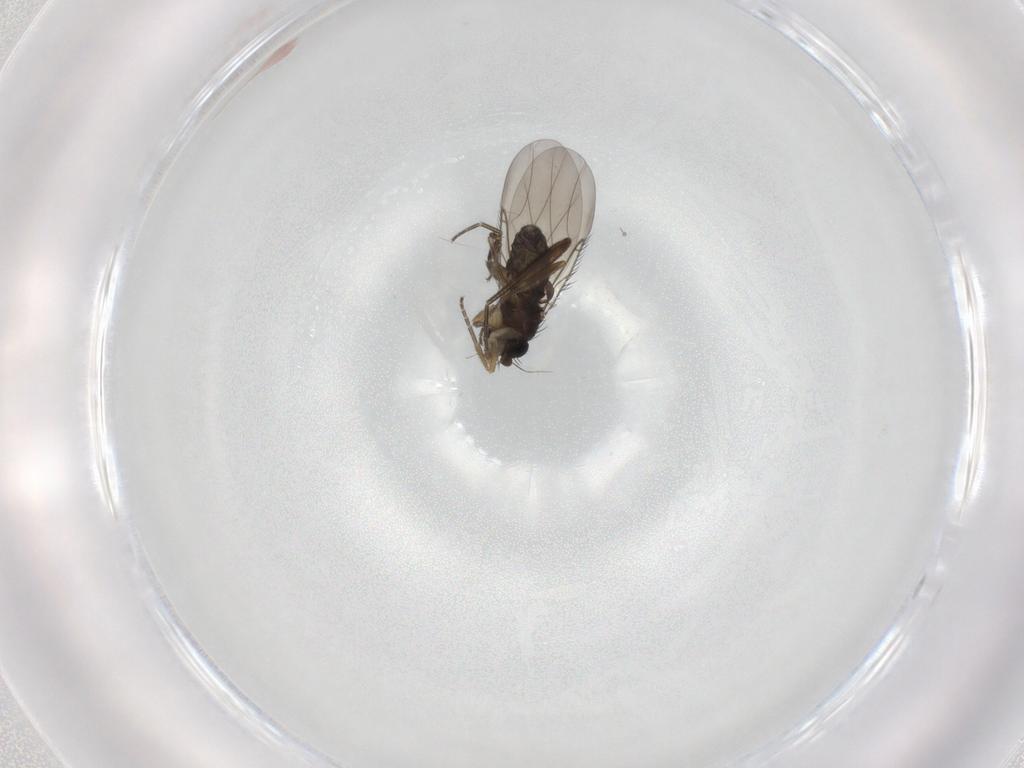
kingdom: Animalia
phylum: Arthropoda
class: Insecta
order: Diptera
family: Phoridae
